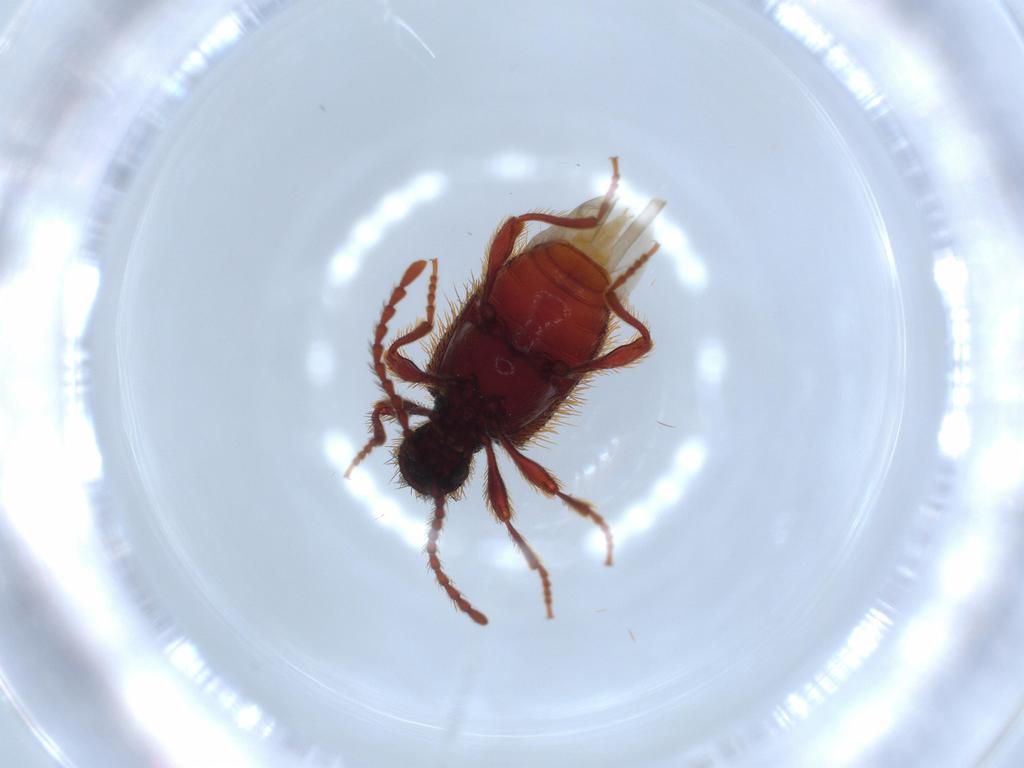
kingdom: Animalia
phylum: Arthropoda
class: Insecta
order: Coleoptera
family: Ptinidae
